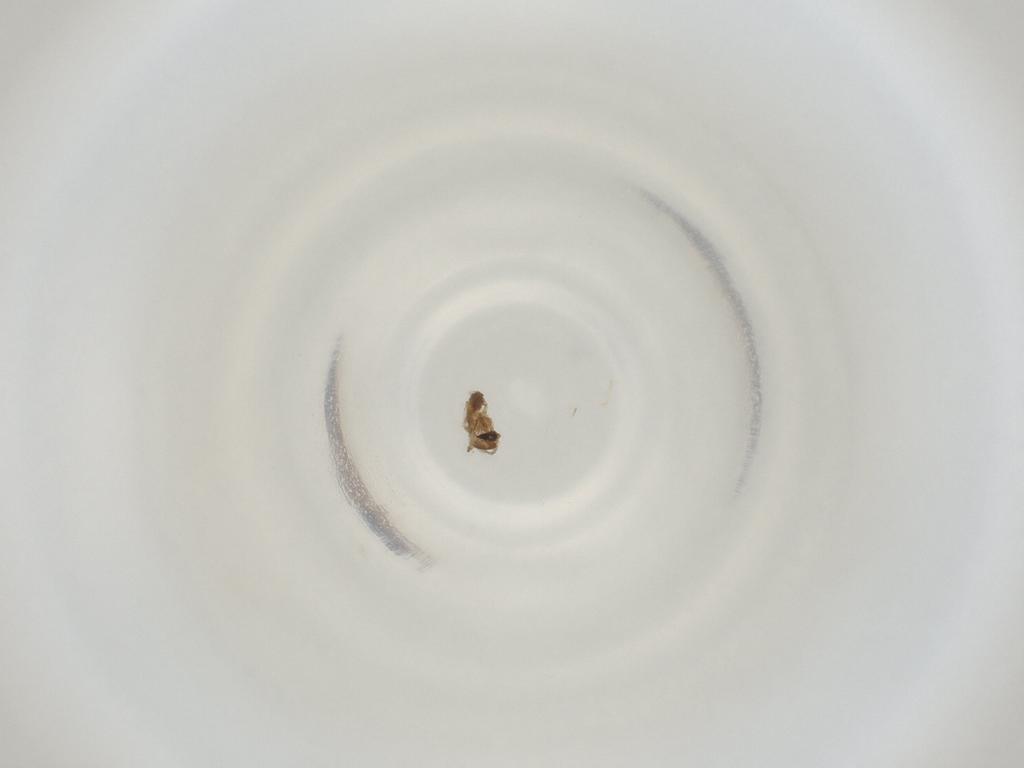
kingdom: Animalia
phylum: Arthropoda
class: Insecta
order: Diptera
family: Cecidomyiidae
